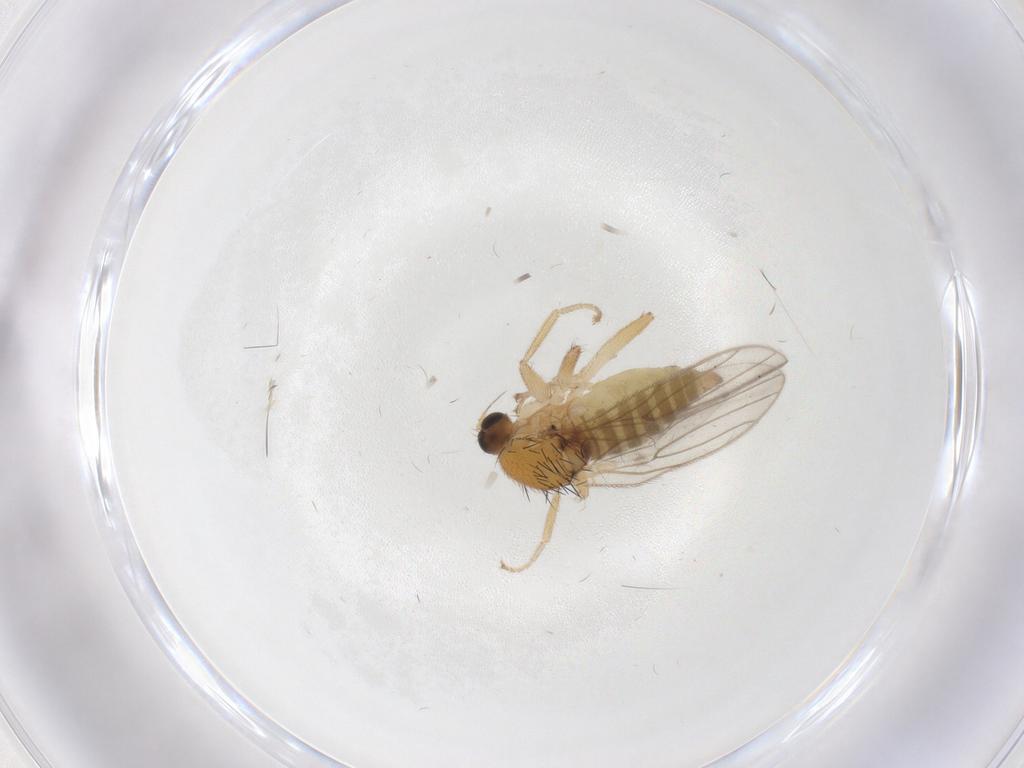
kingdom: Animalia
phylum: Arthropoda
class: Insecta
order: Diptera
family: Hybotidae
